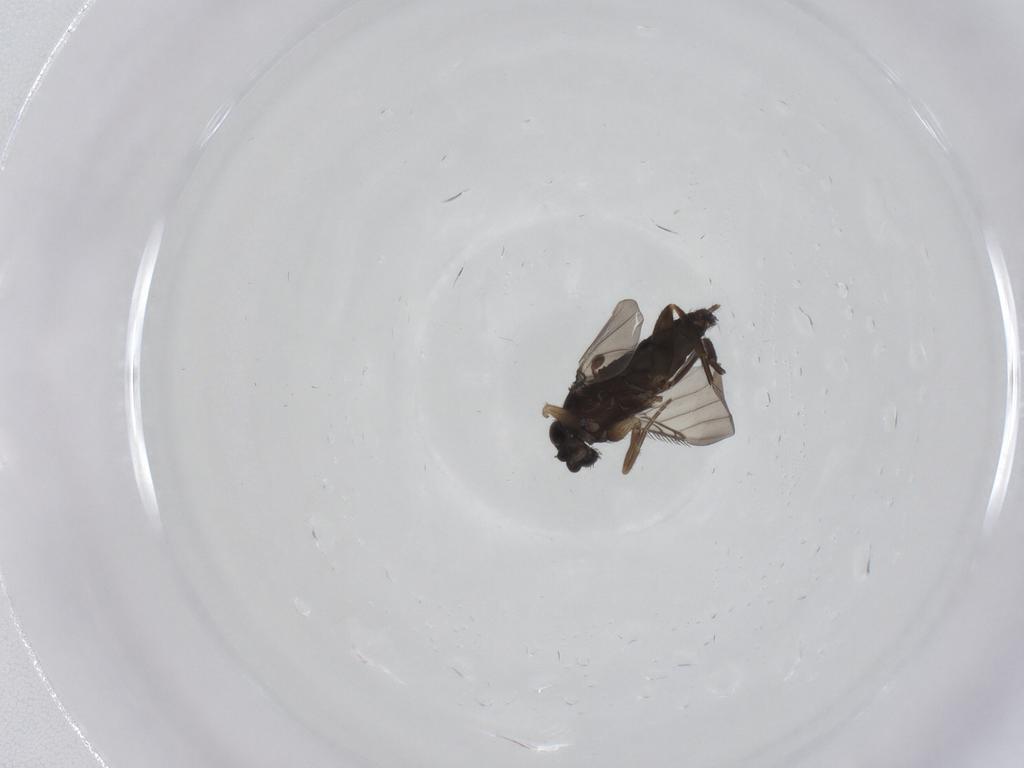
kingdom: Animalia
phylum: Arthropoda
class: Insecta
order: Diptera
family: Phoridae
